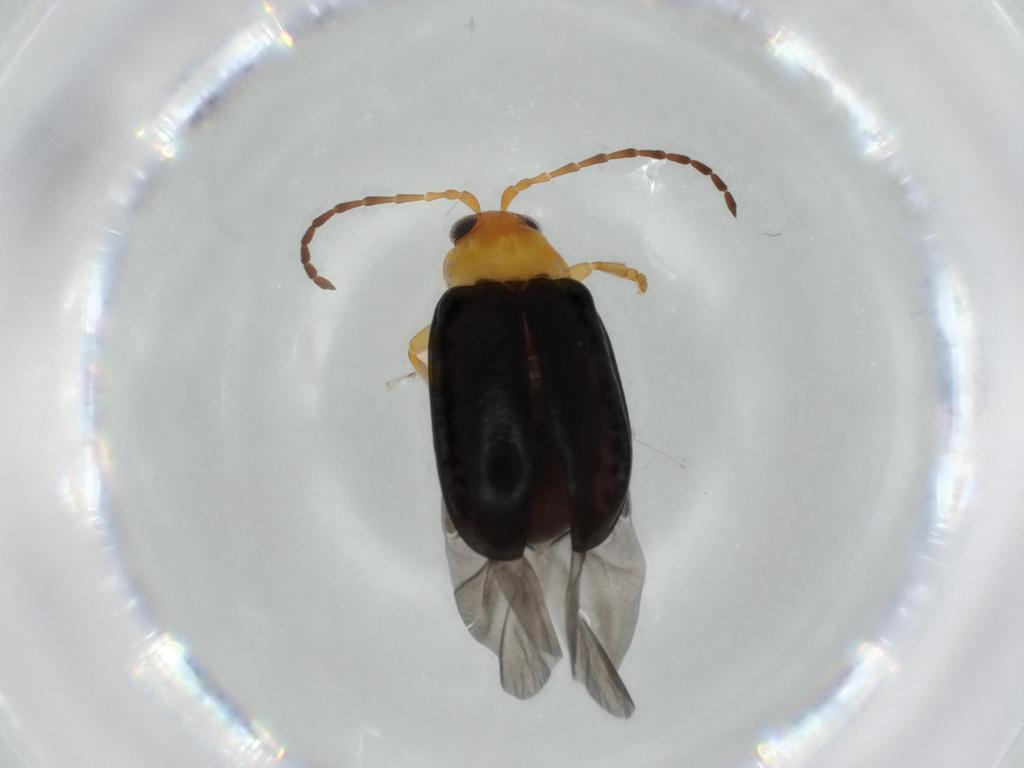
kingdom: Animalia
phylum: Arthropoda
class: Insecta
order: Coleoptera
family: Chrysomelidae
